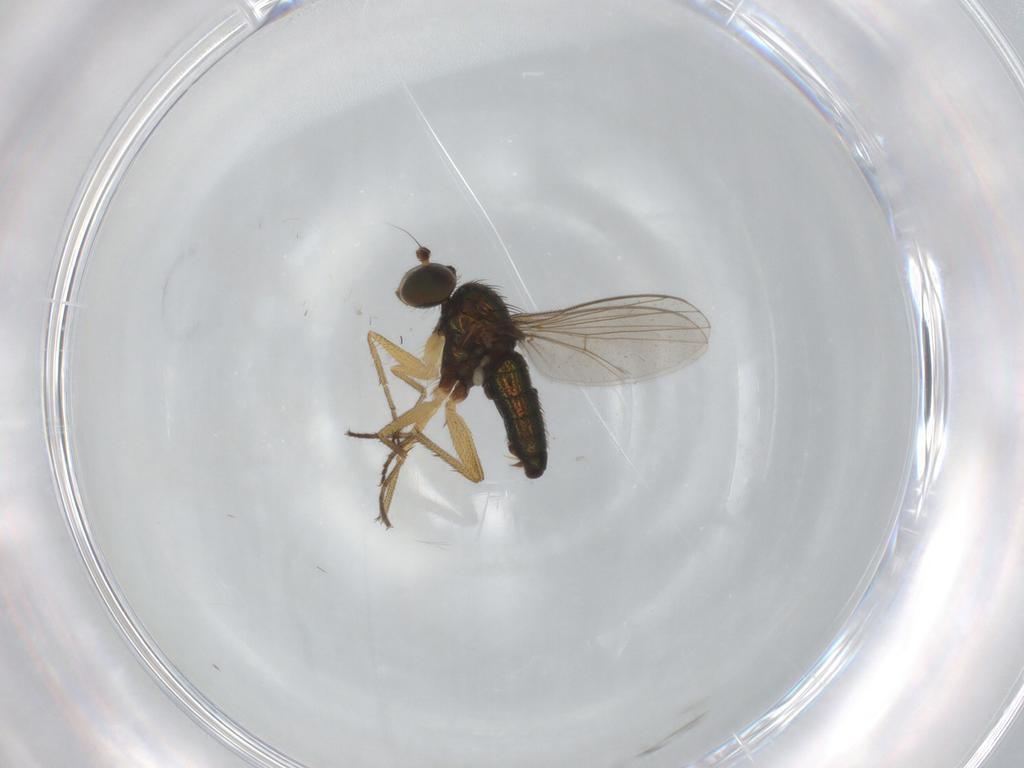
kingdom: Animalia
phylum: Arthropoda
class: Insecta
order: Diptera
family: Dolichopodidae
